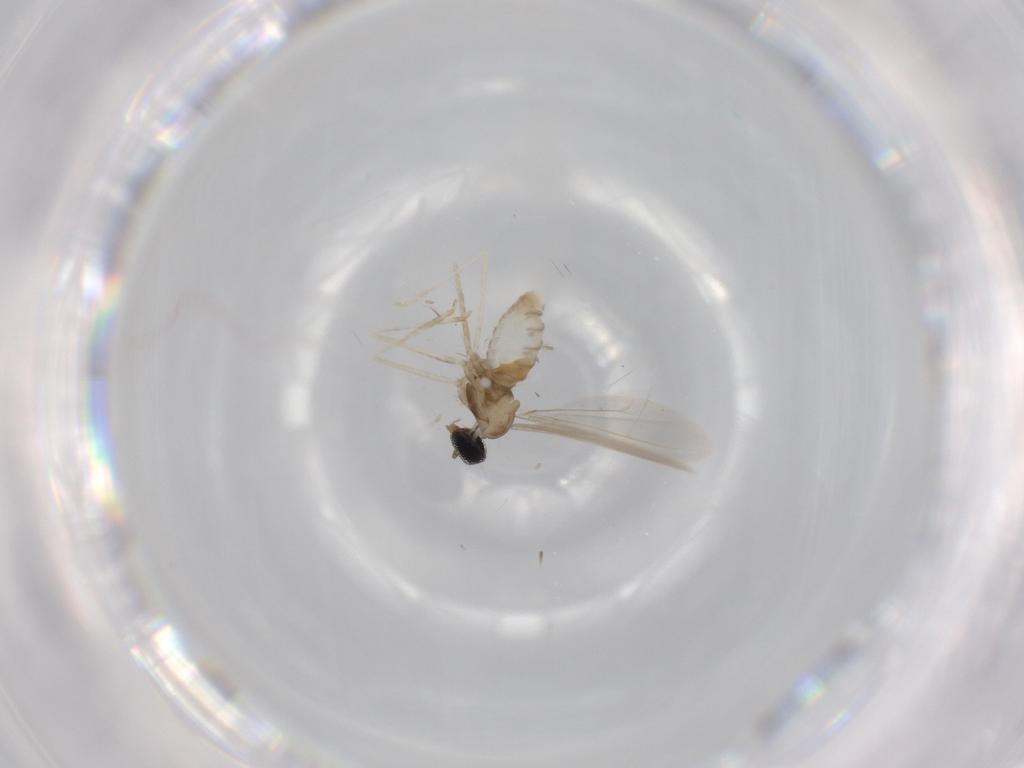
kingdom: Animalia
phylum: Arthropoda
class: Insecta
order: Diptera
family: Cecidomyiidae
